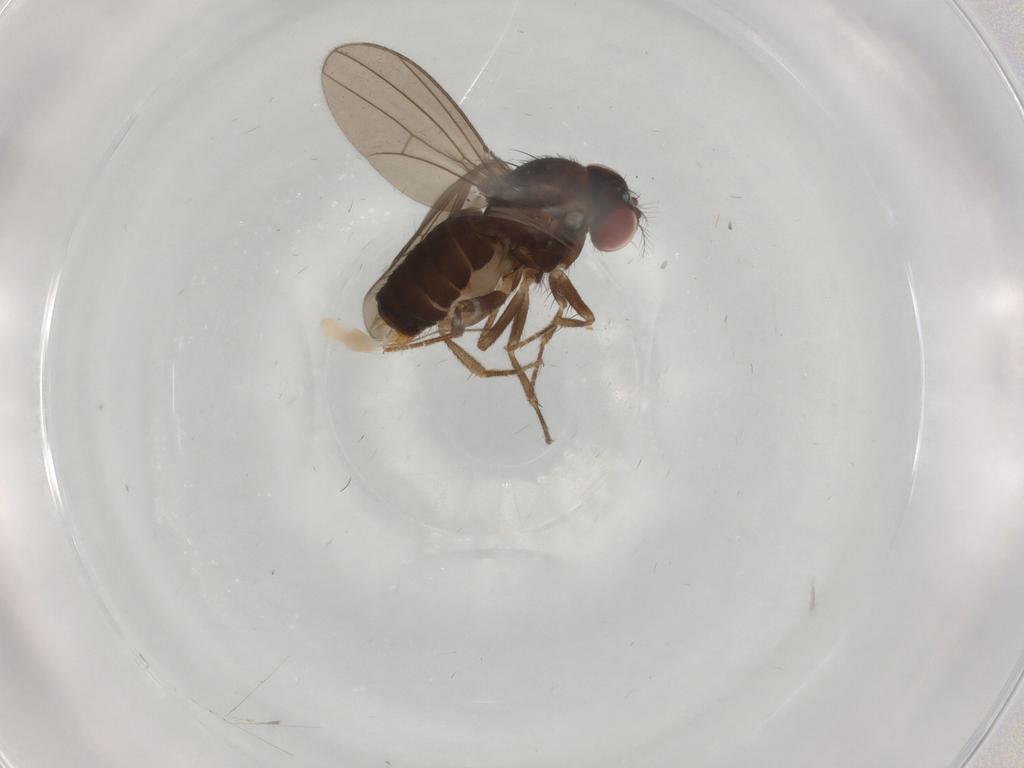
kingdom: Animalia
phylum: Arthropoda
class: Insecta
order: Diptera
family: Drosophilidae
